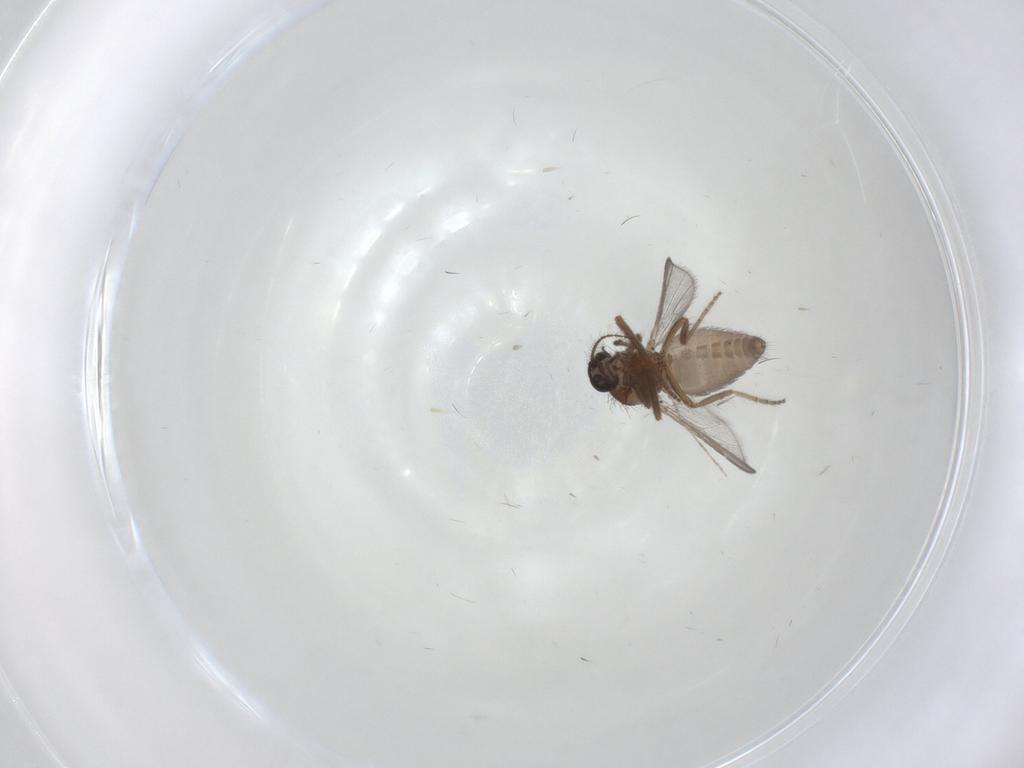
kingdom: Animalia
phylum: Arthropoda
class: Insecta
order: Diptera
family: Ceratopogonidae
